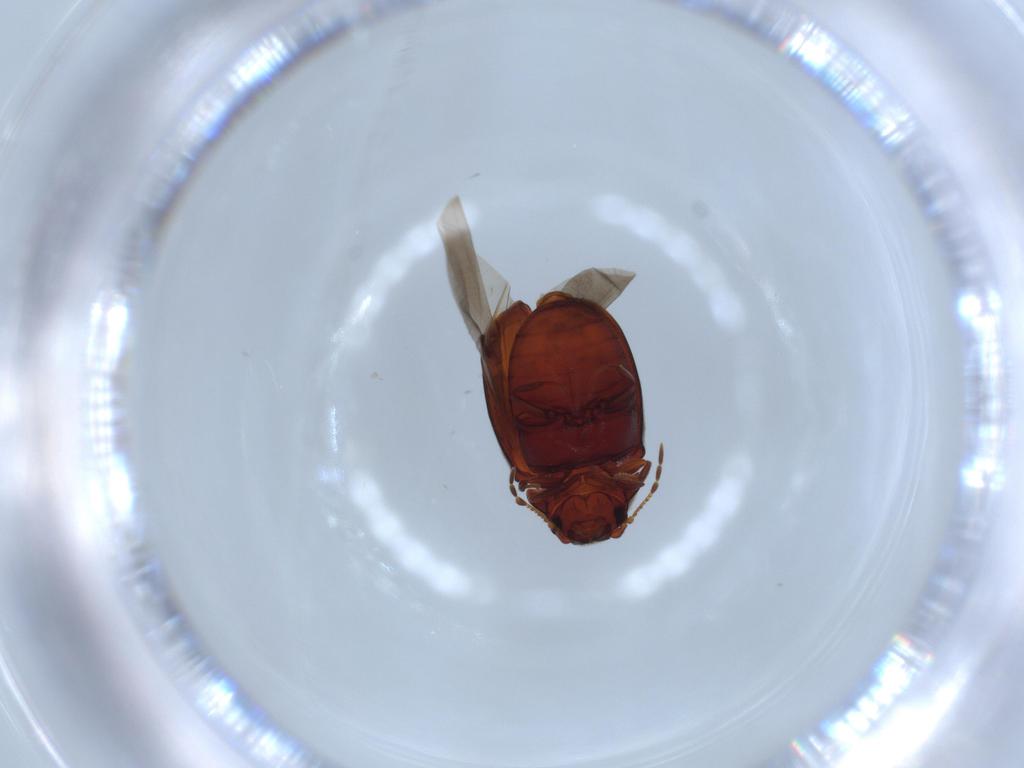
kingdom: Animalia
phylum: Arthropoda
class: Insecta
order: Coleoptera
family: Ptinidae
